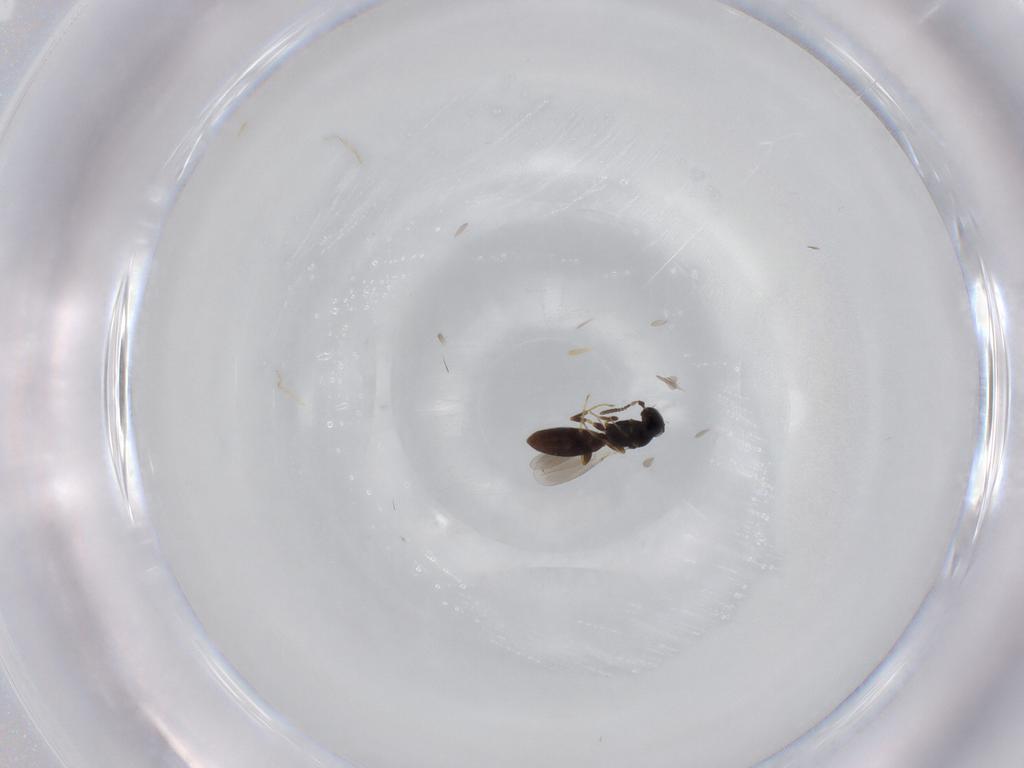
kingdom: Animalia
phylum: Arthropoda
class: Insecta
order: Hymenoptera
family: Platygastridae
